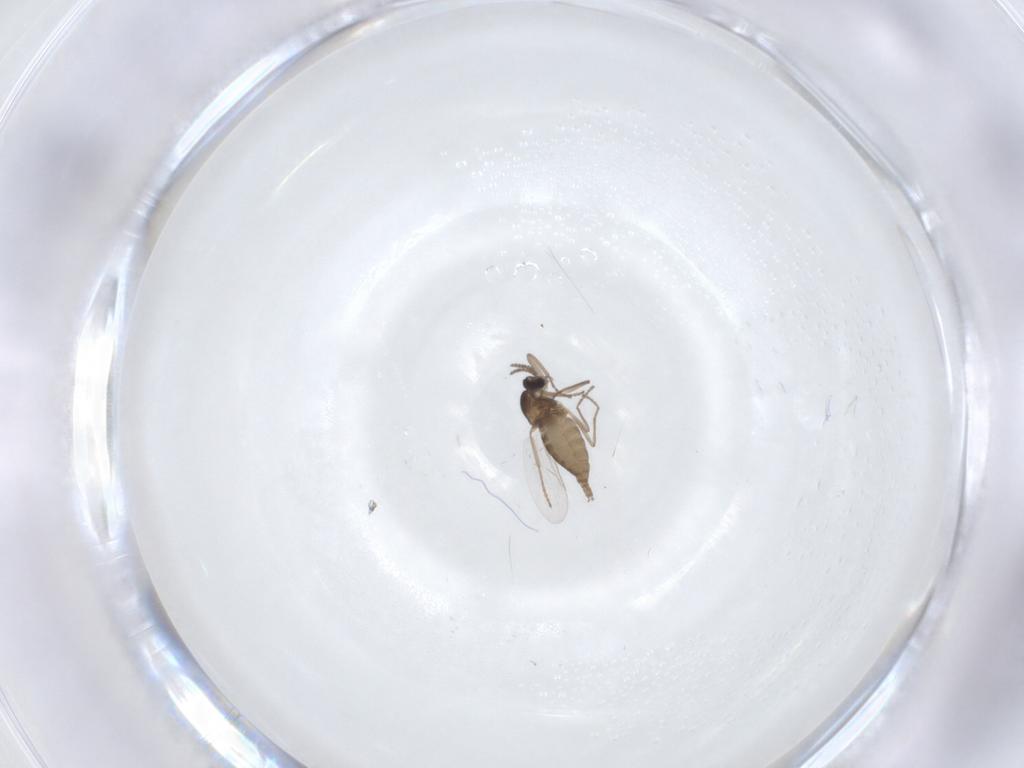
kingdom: Animalia
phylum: Arthropoda
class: Insecta
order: Diptera
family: Cecidomyiidae
